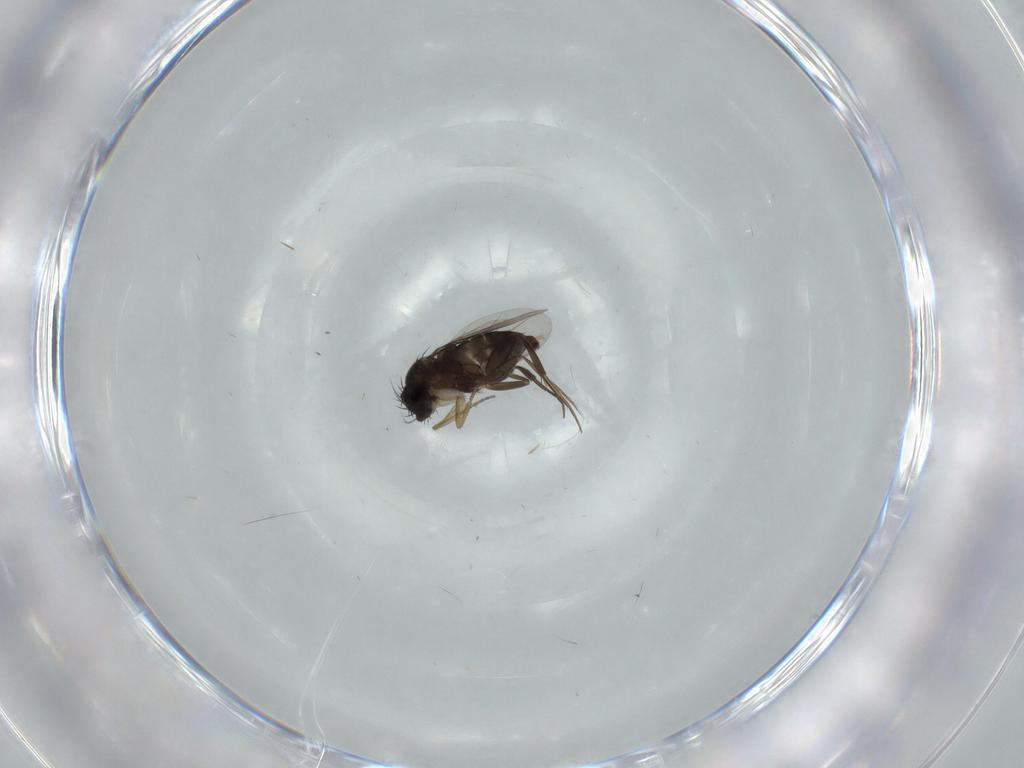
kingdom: Animalia
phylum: Arthropoda
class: Insecta
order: Diptera
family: Phoridae
